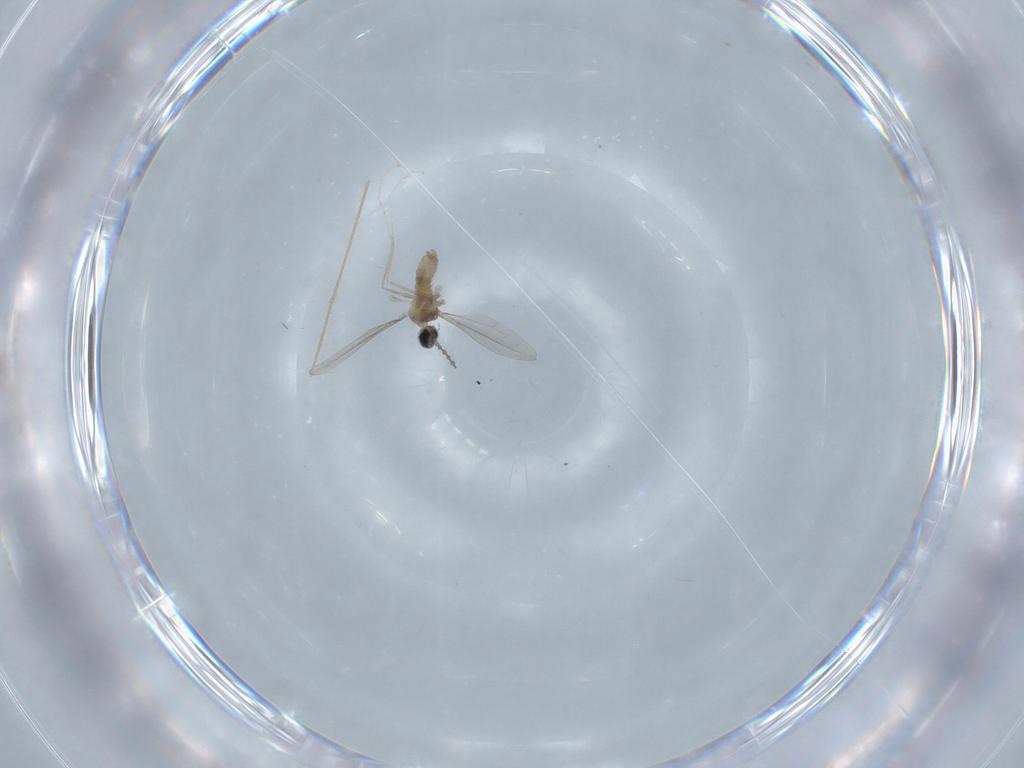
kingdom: Animalia
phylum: Arthropoda
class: Insecta
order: Diptera
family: Cecidomyiidae
